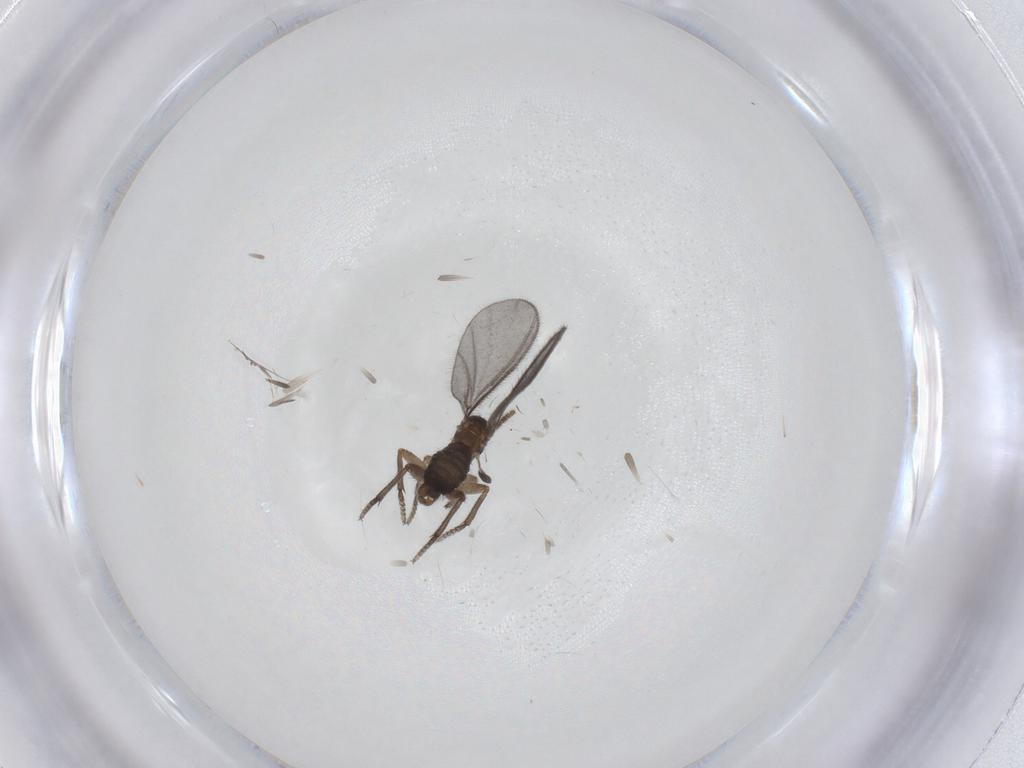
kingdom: Animalia
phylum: Arthropoda
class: Insecta
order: Diptera
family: Sciaridae
